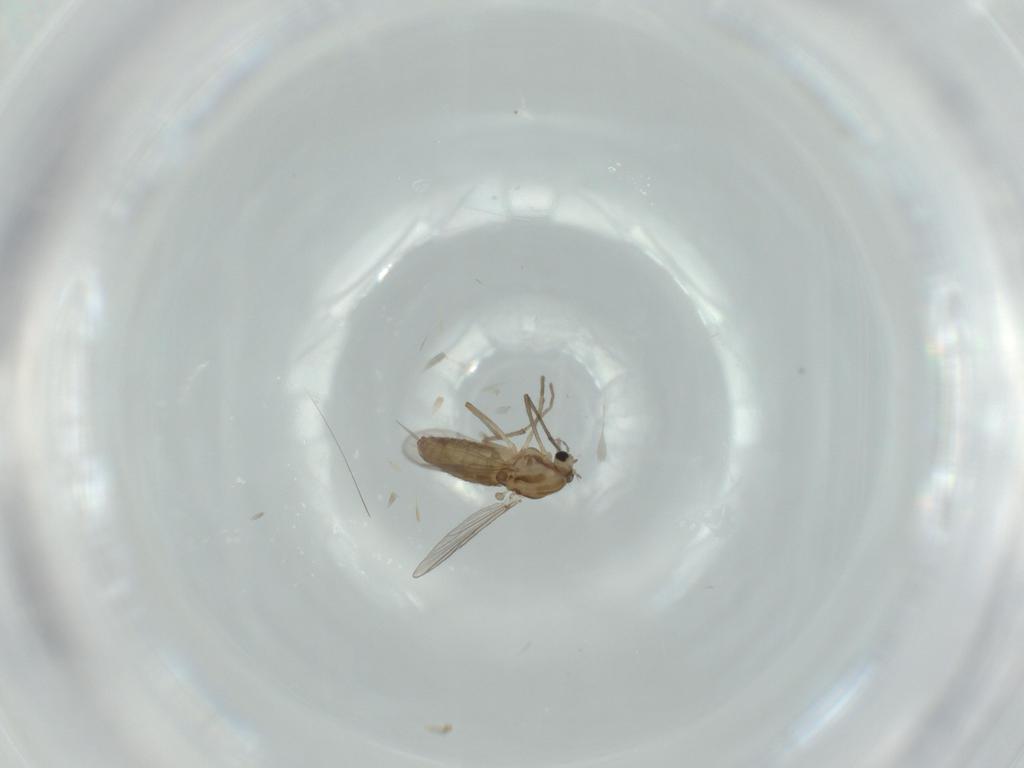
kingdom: Animalia
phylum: Arthropoda
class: Insecta
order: Diptera
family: Chironomidae
